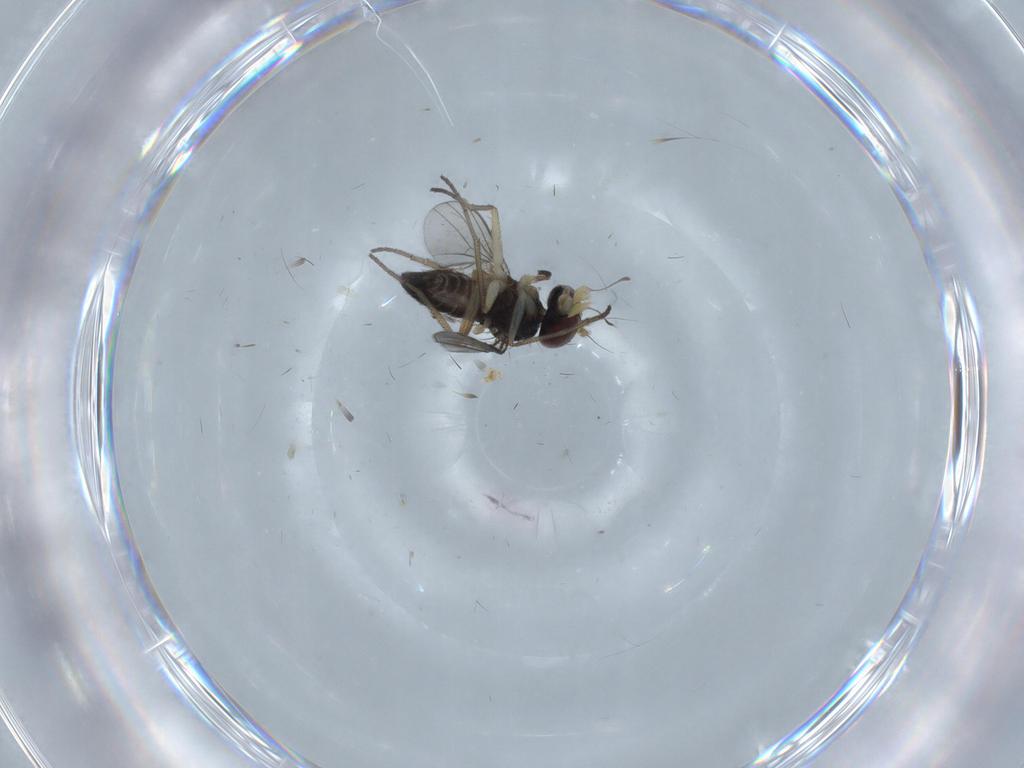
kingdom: Animalia
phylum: Arthropoda
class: Insecta
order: Diptera
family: Dolichopodidae
